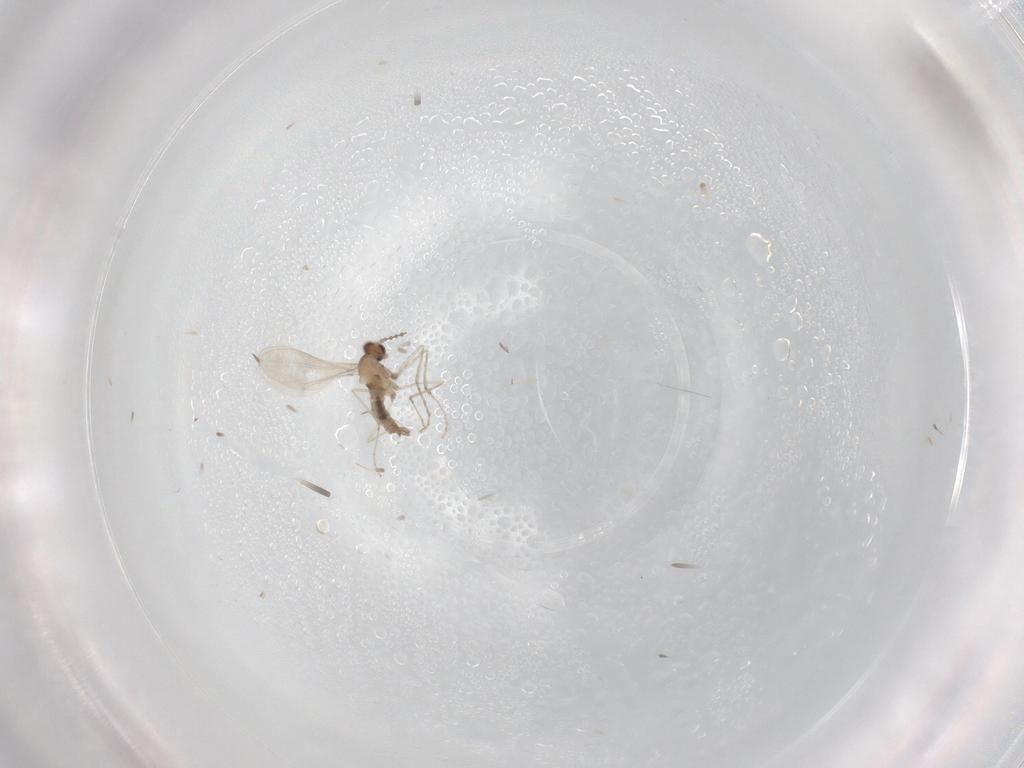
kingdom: Animalia
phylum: Arthropoda
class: Insecta
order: Diptera
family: Cecidomyiidae
